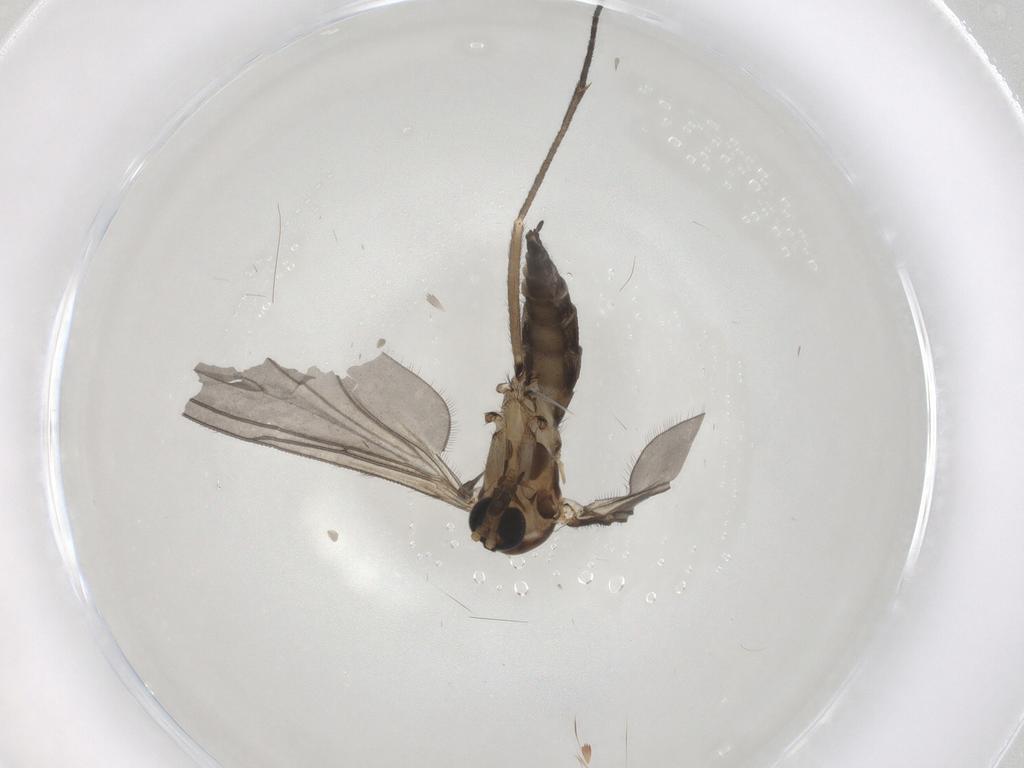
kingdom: Animalia
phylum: Arthropoda
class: Insecta
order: Diptera
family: Sciaridae
